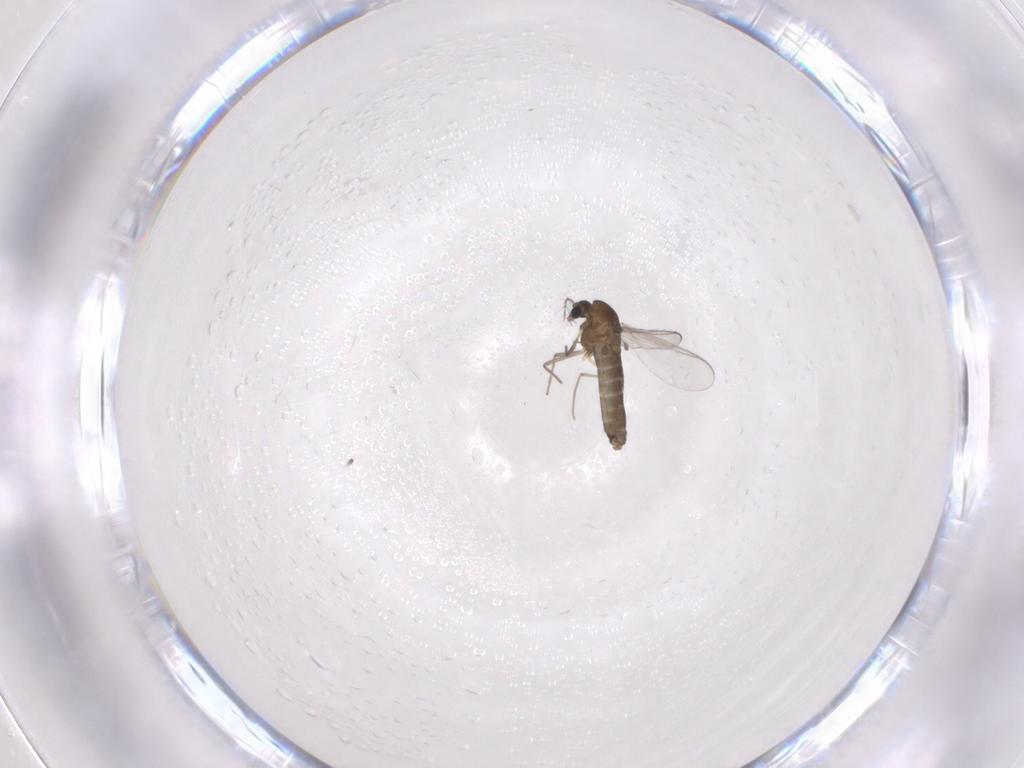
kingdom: Animalia
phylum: Arthropoda
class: Insecta
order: Diptera
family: Chironomidae
